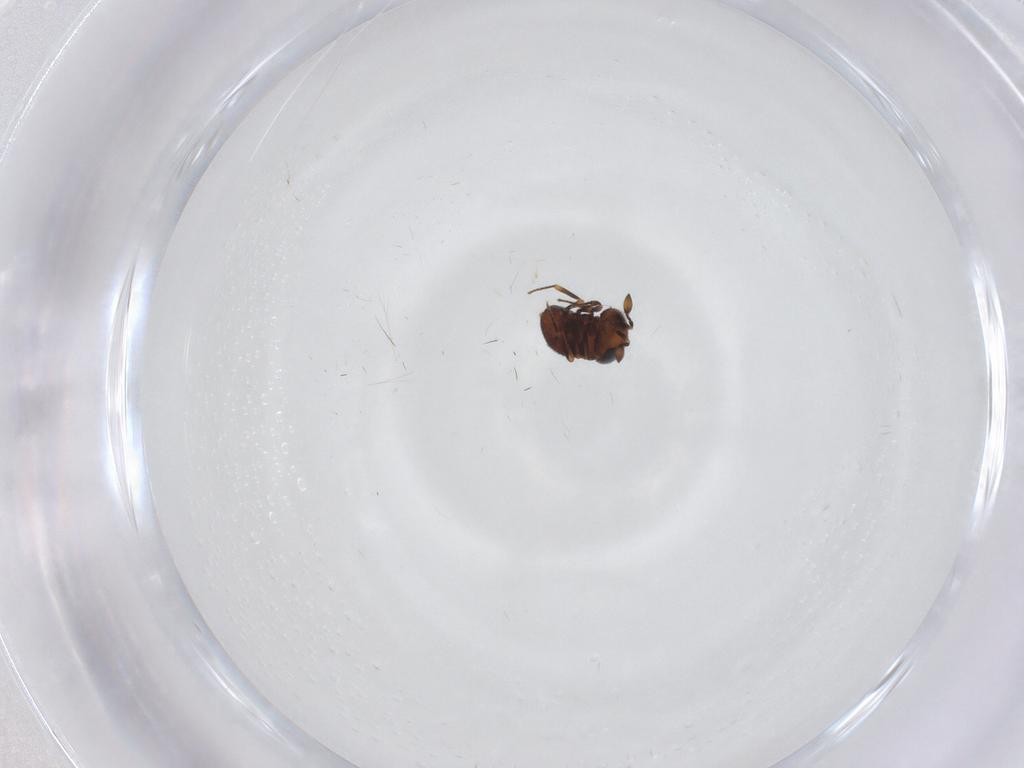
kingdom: Animalia
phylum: Arthropoda
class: Insecta
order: Hymenoptera
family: Scelionidae
